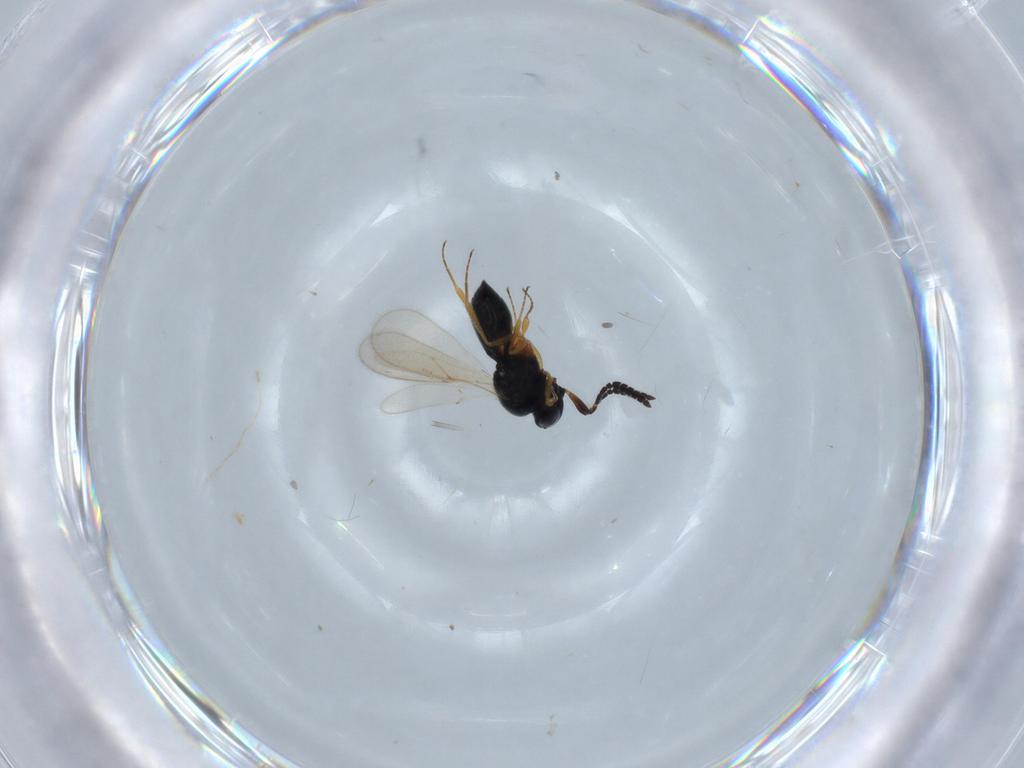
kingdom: Animalia
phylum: Arthropoda
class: Insecta
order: Hymenoptera
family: Scelionidae
